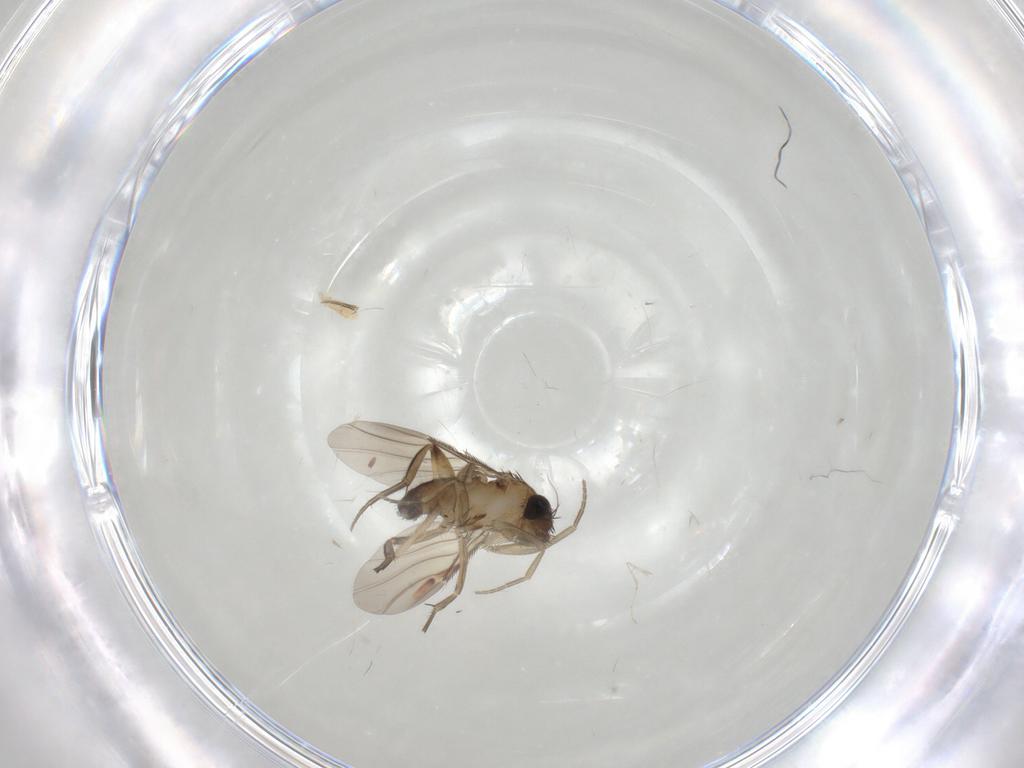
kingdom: Animalia
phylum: Arthropoda
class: Insecta
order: Diptera
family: Phoridae
